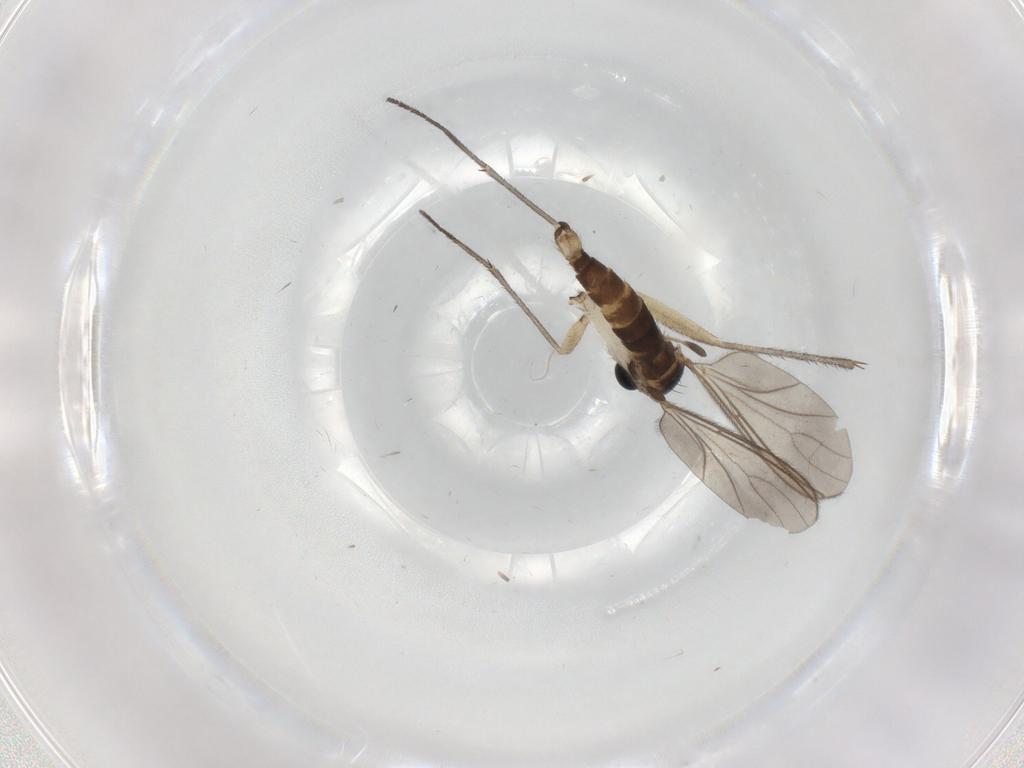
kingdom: Animalia
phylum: Arthropoda
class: Insecta
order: Diptera
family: Sciaridae
